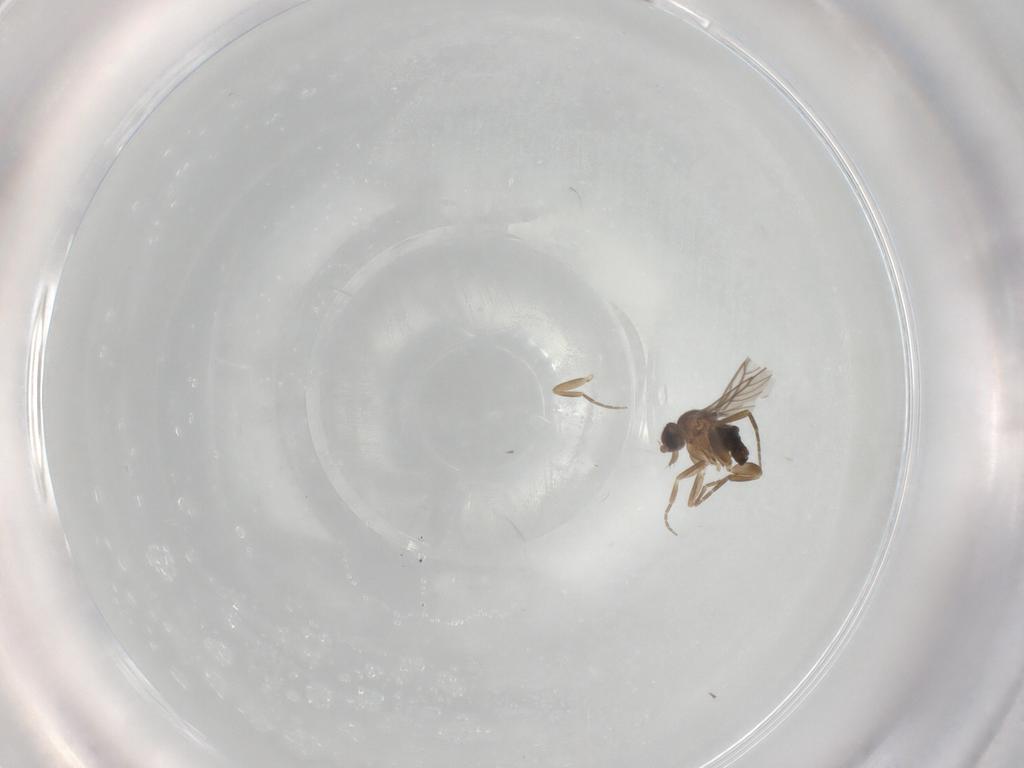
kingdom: Animalia
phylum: Arthropoda
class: Insecta
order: Diptera
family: Phoridae
